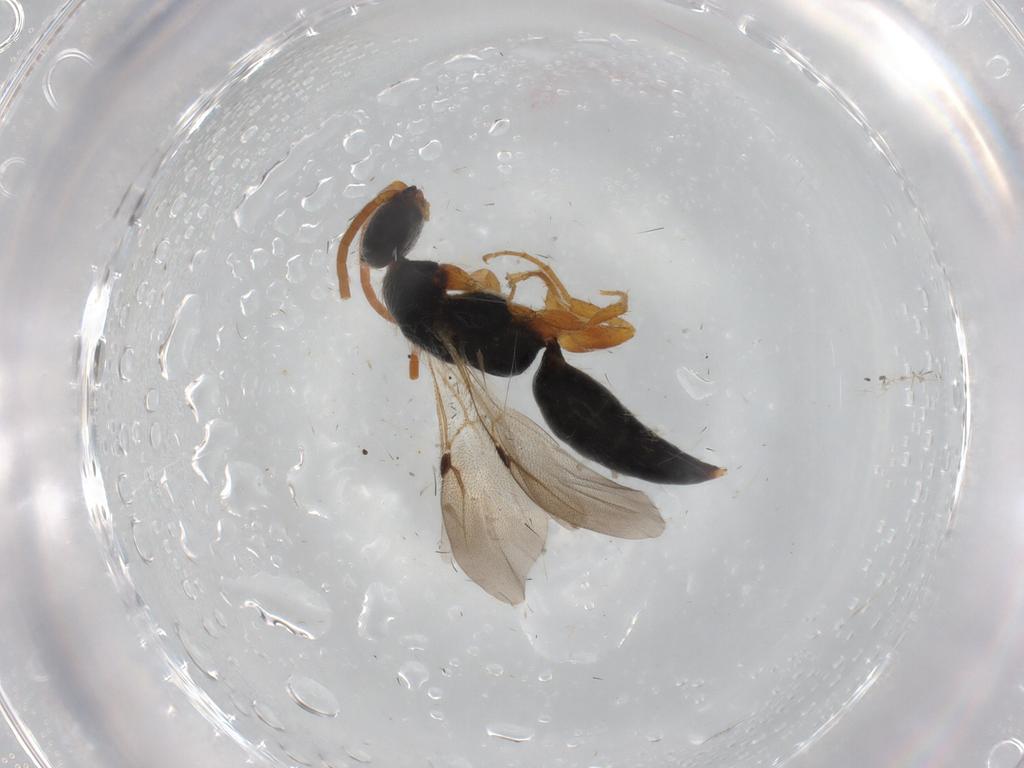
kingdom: Animalia
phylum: Arthropoda
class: Insecta
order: Hymenoptera
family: Bethylidae
